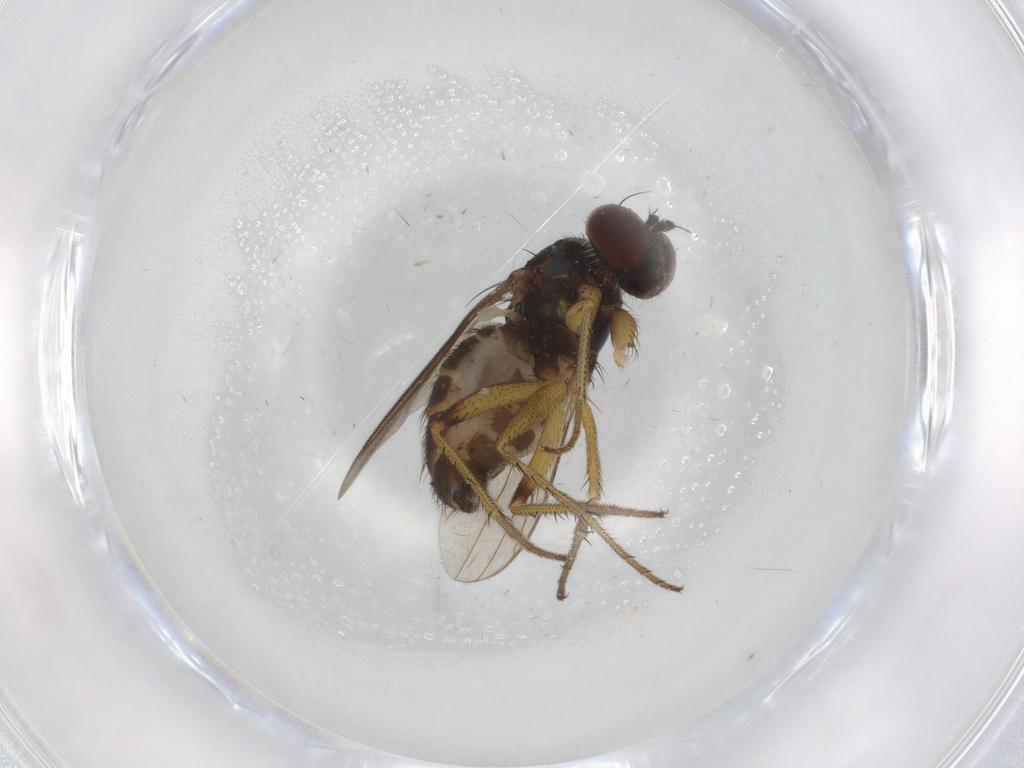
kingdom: Animalia
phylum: Arthropoda
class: Insecta
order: Diptera
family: Dolichopodidae
